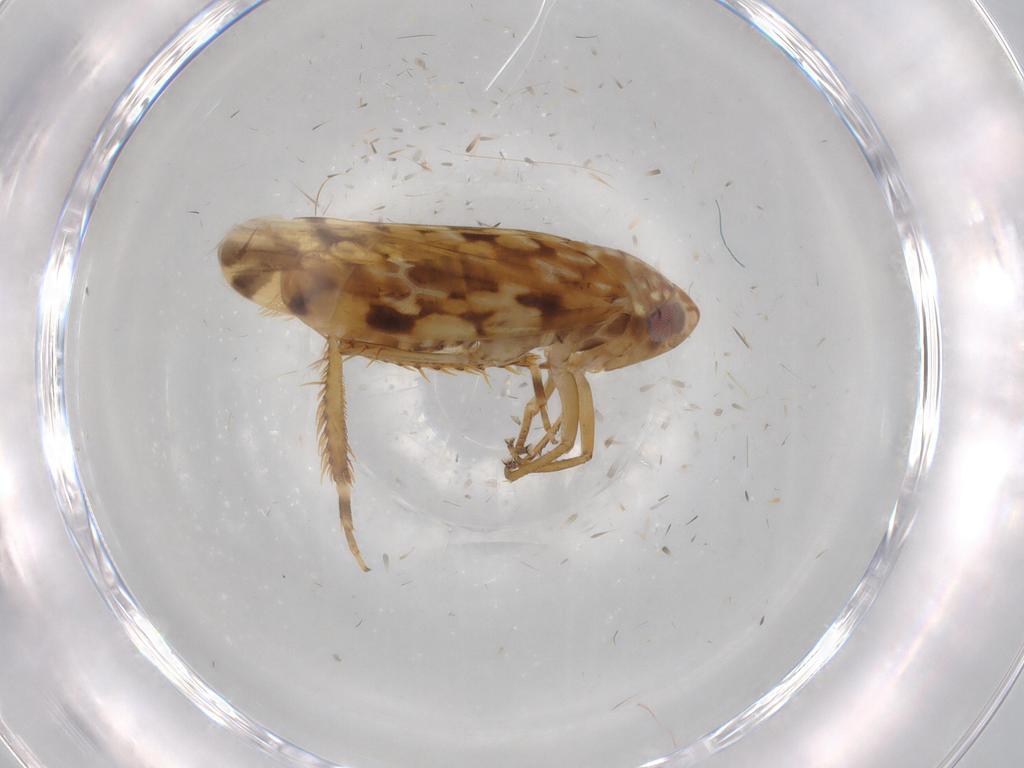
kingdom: Animalia
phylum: Arthropoda
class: Insecta
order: Hemiptera
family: Cicadellidae
